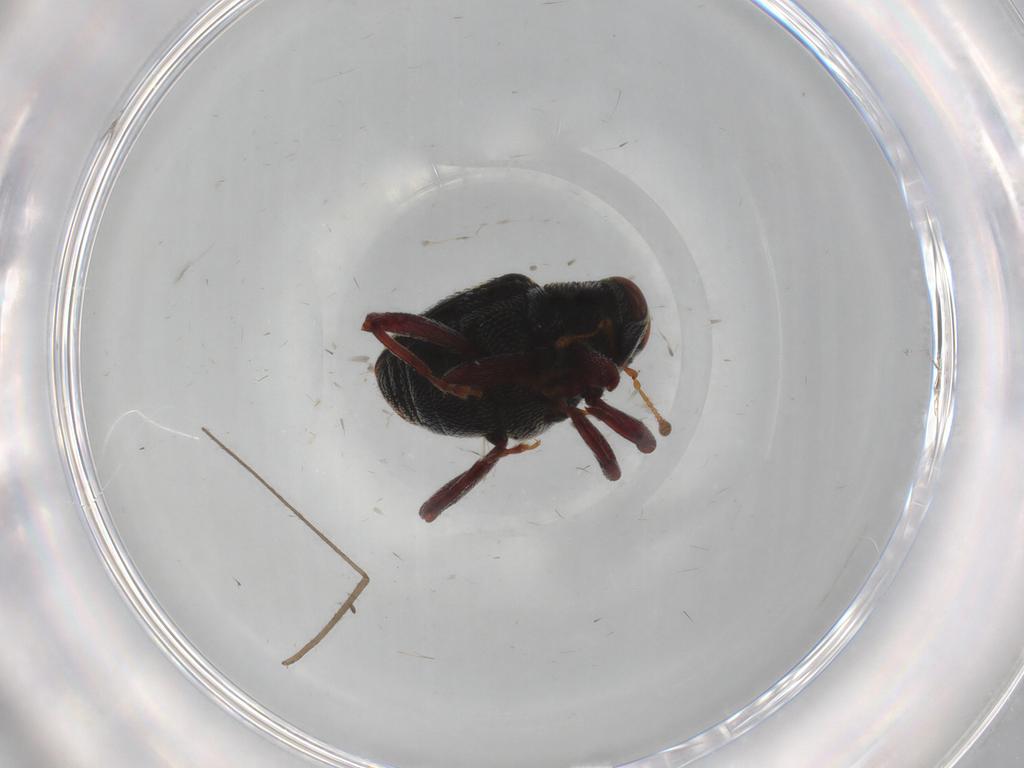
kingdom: Animalia
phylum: Arthropoda
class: Insecta
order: Coleoptera
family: Curculionidae
